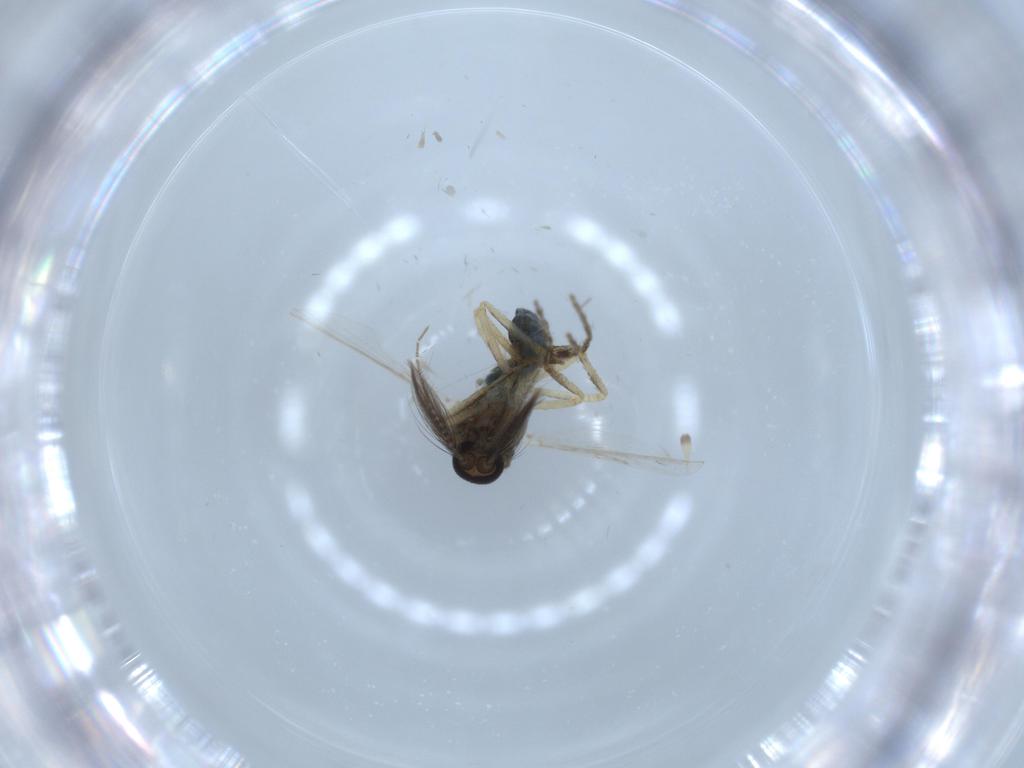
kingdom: Animalia
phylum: Arthropoda
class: Insecta
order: Diptera
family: Ceratopogonidae
